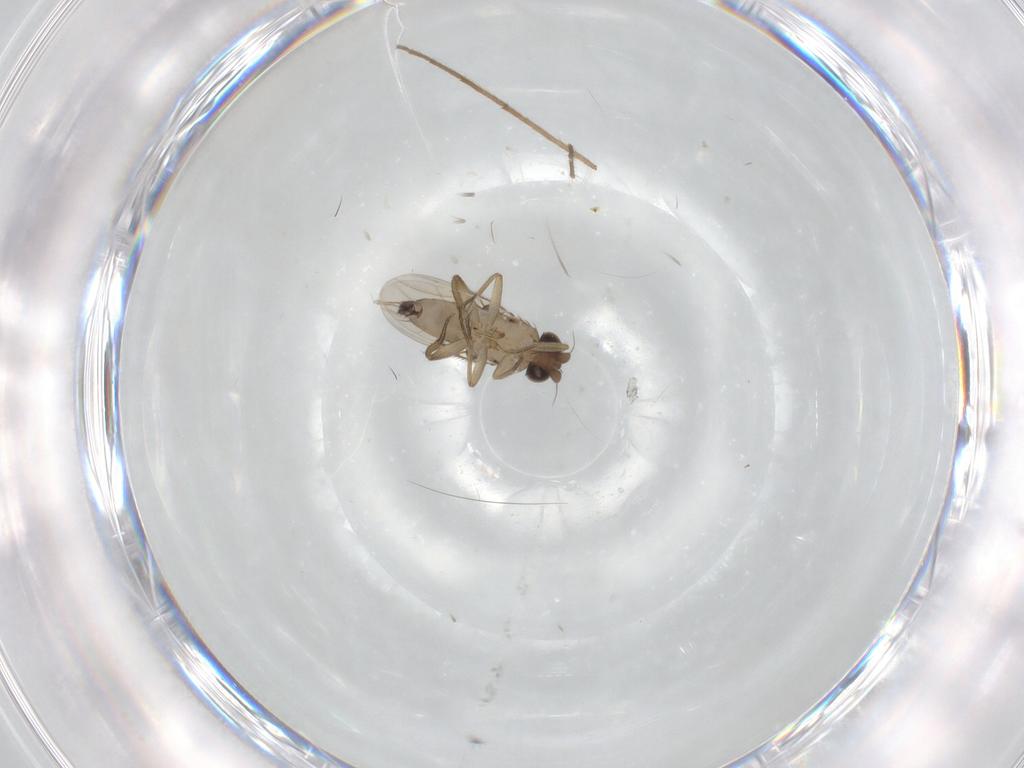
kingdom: Animalia
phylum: Arthropoda
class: Insecta
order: Diptera
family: Phoridae
